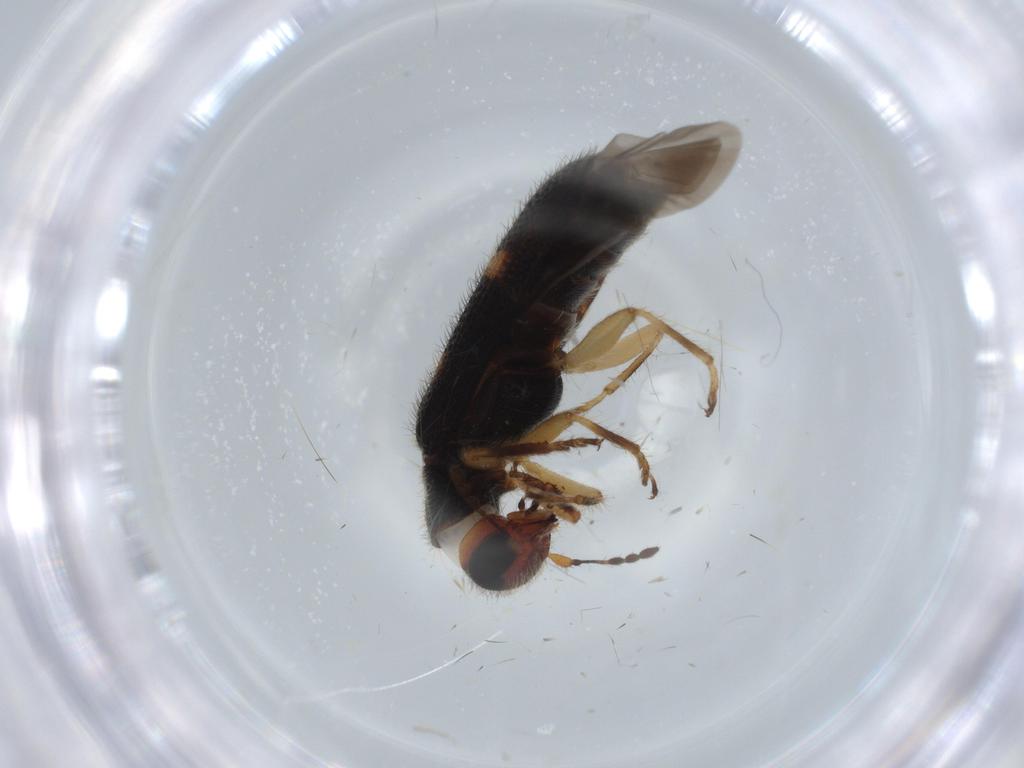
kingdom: Animalia
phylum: Arthropoda
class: Insecta
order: Coleoptera
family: Cleridae
